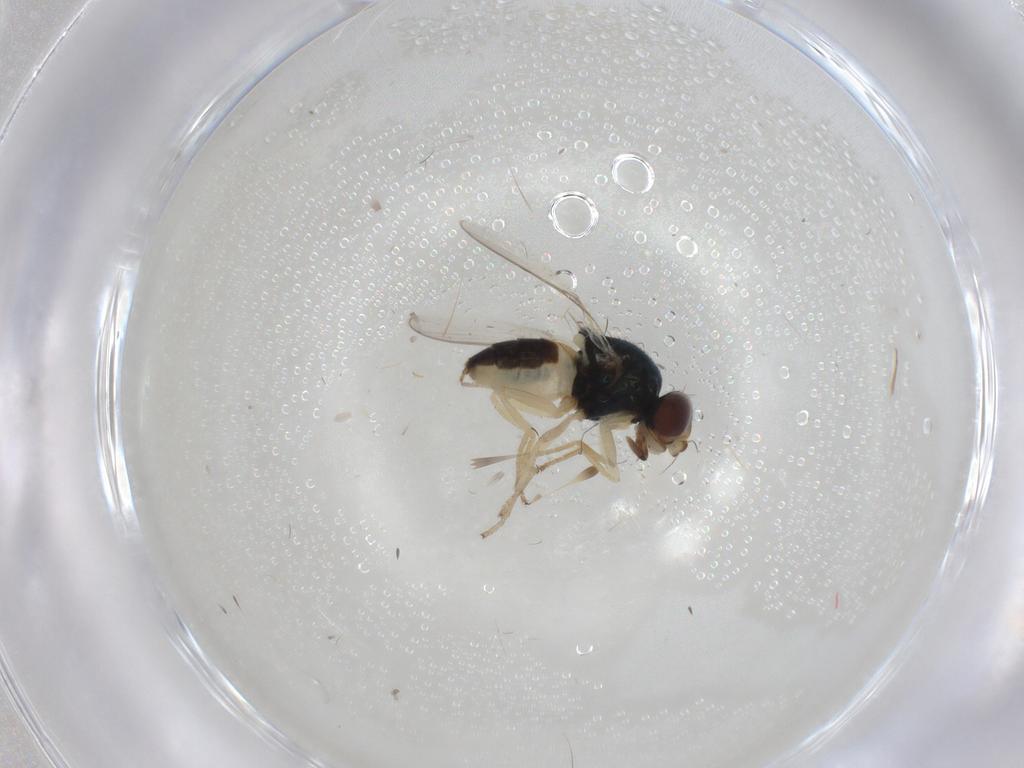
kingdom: Animalia
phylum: Arthropoda
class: Insecta
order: Diptera
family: Chloropidae
